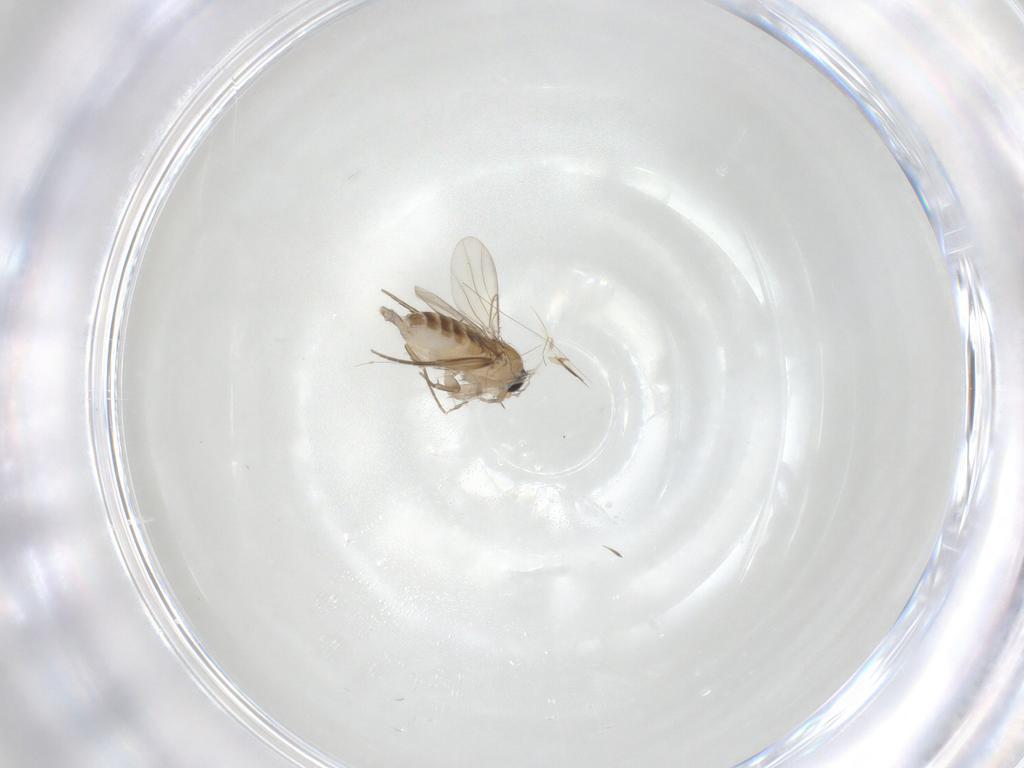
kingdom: Animalia
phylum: Arthropoda
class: Insecta
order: Diptera
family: Phoridae
